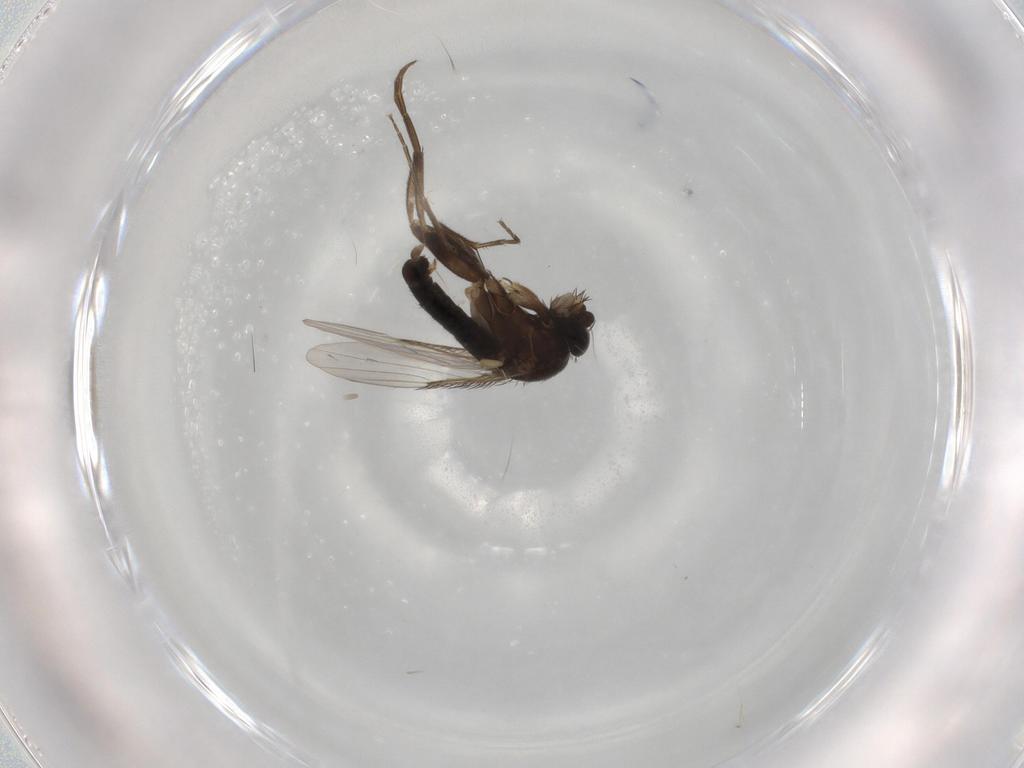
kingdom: Animalia
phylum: Arthropoda
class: Insecta
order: Diptera
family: Phoridae
